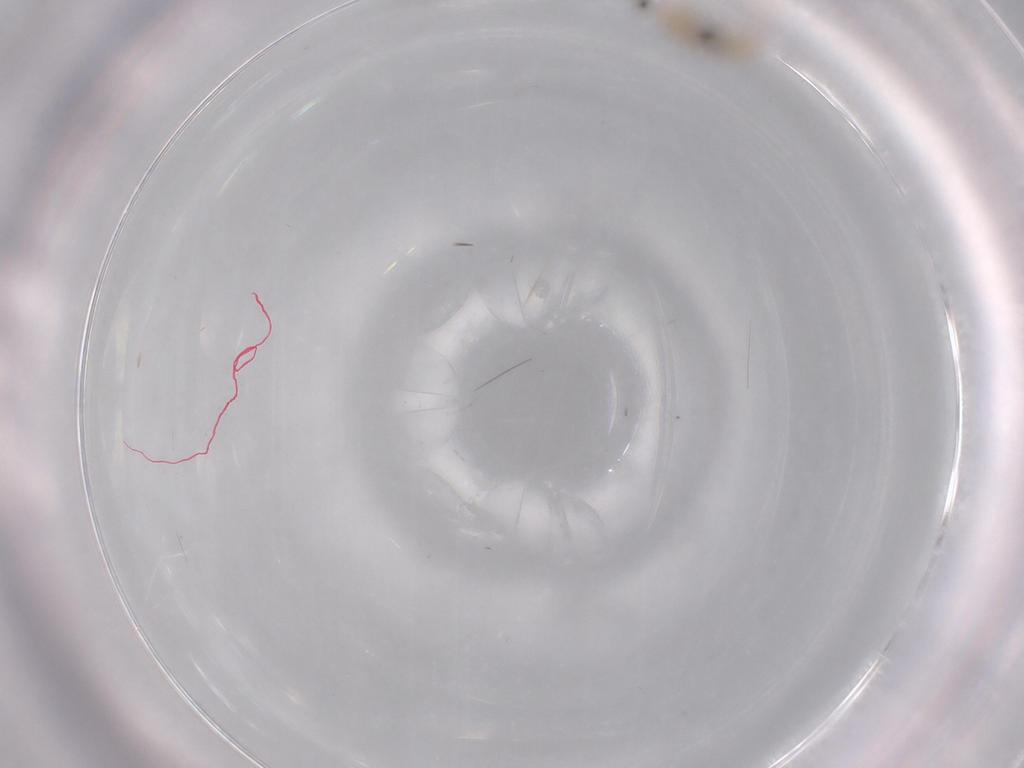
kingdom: Animalia
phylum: Arthropoda
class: Insecta
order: Diptera
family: Cecidomyiidae
